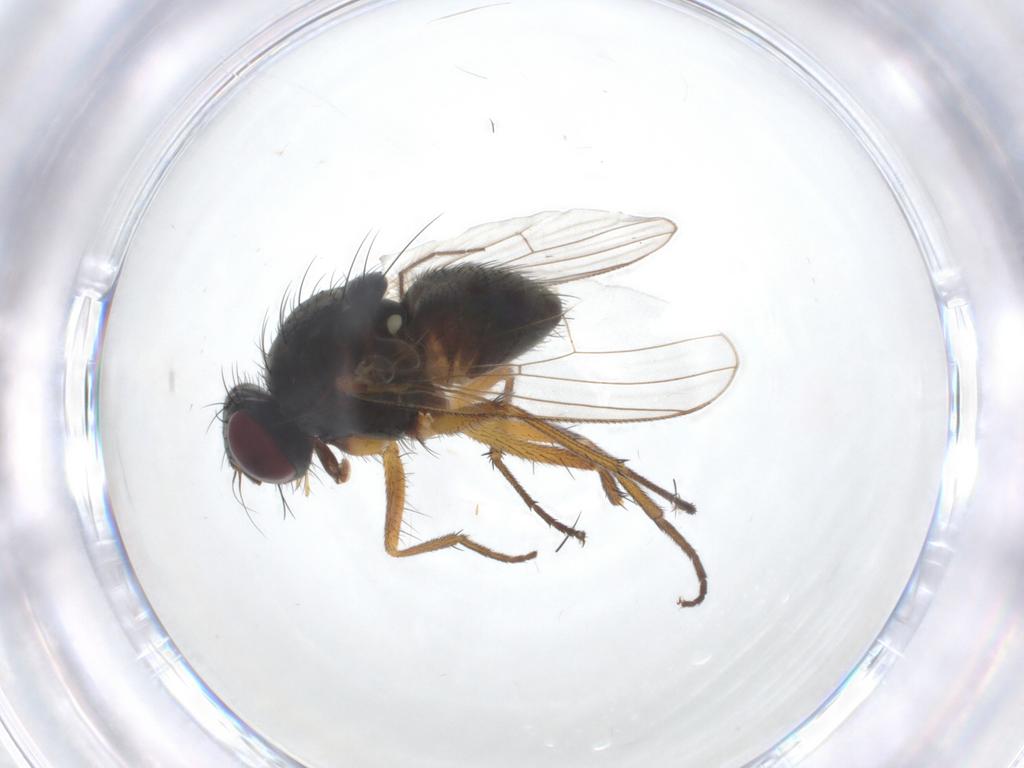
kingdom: Animalia
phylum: Arthropoda
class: Insecta
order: Diptera
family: Muscidae
